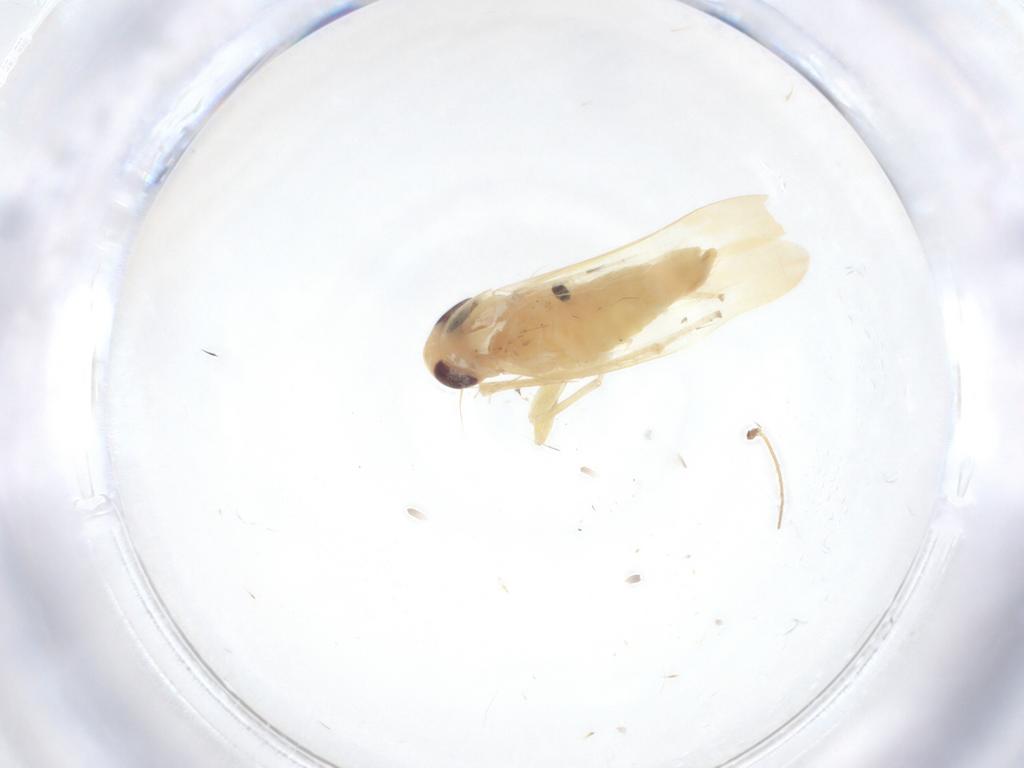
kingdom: Animalia
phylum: Arthropoda
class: Insecta
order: Hemiptera
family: Cicadellidae
